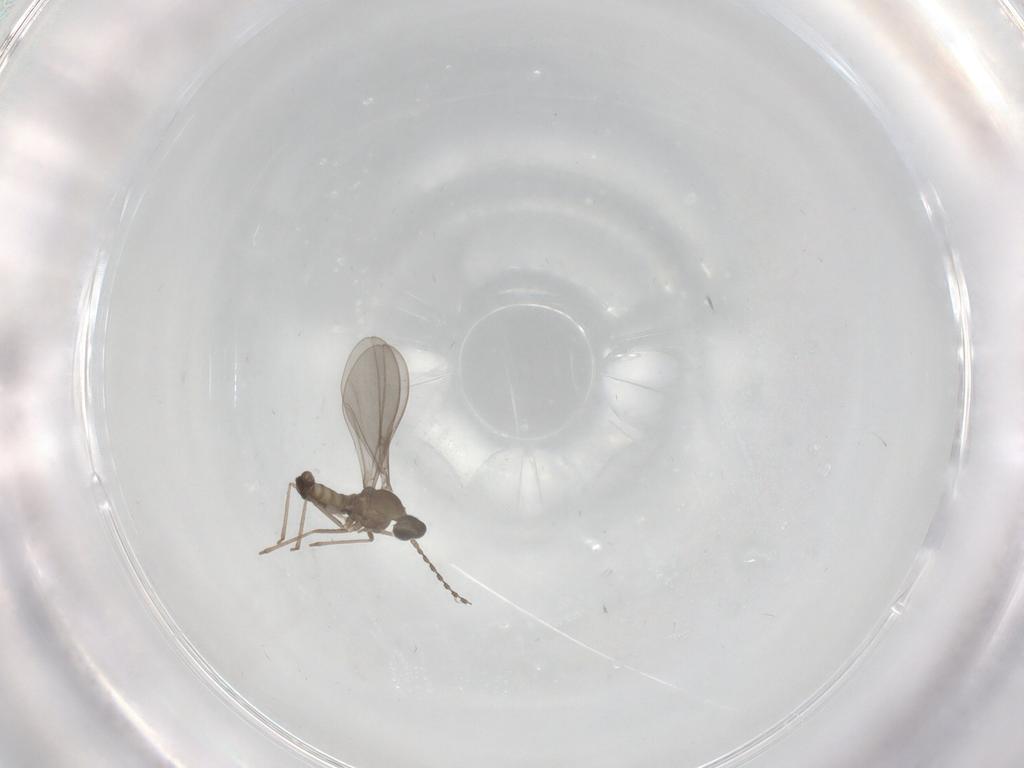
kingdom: Animalia
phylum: Arthropoda
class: Insecta
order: Diptera
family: Cecidomyiidae
